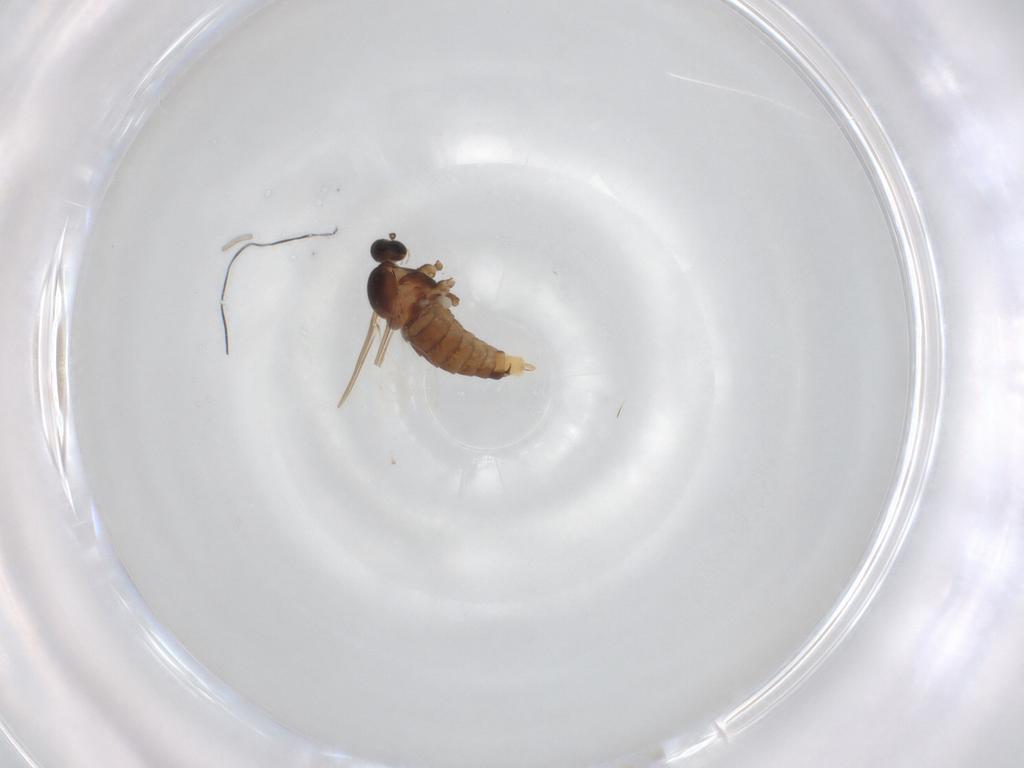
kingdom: Animalia
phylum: Arthropoda
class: Insecta
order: Diptera
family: Cecidomyiidae
